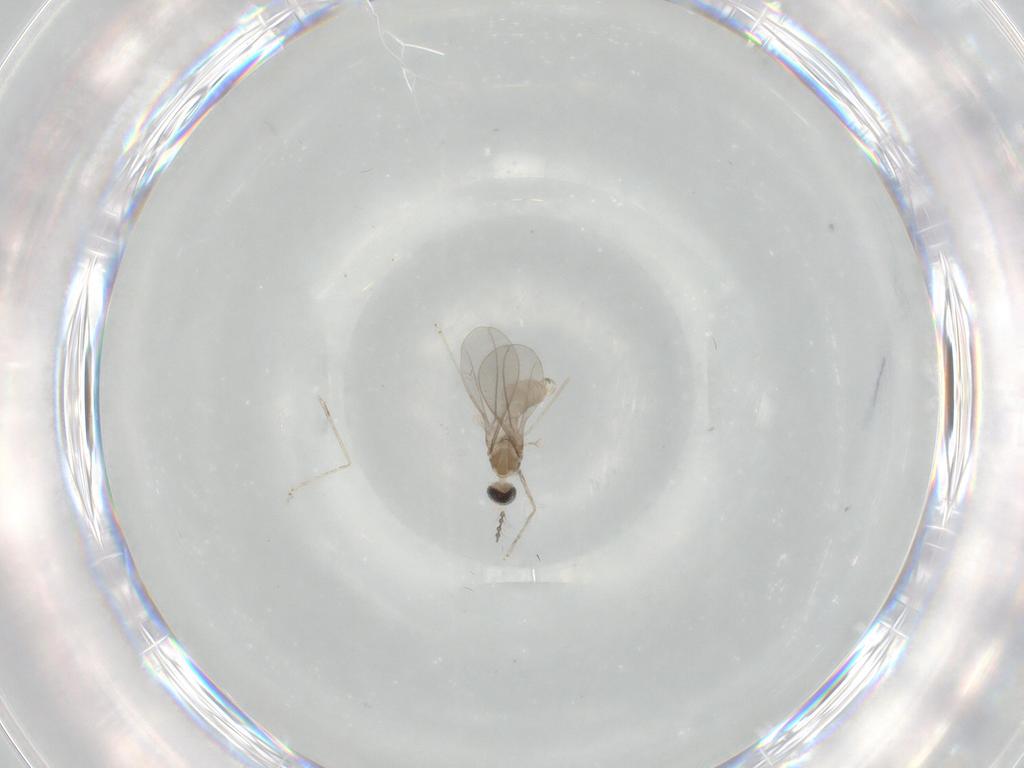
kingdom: Animalia
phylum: Arthropoda
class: Insecta
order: Diptera
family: Cecidomyiidae
